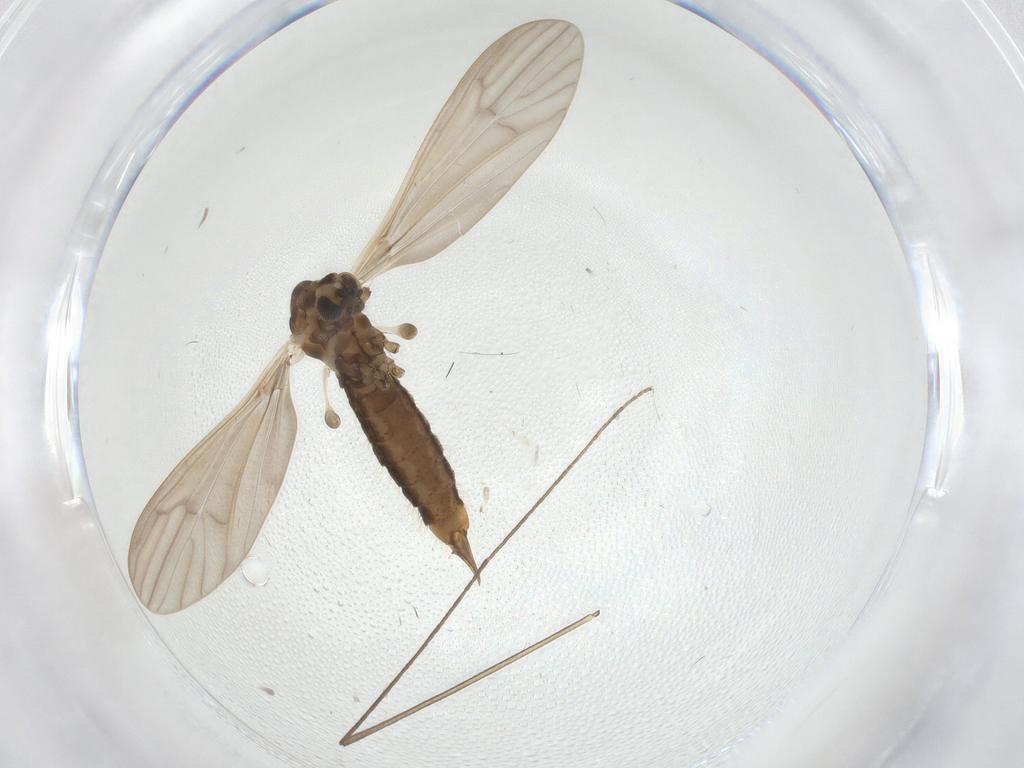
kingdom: Animalia
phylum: Arthropoda
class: Insecta
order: Diptera
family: Limoniidae
